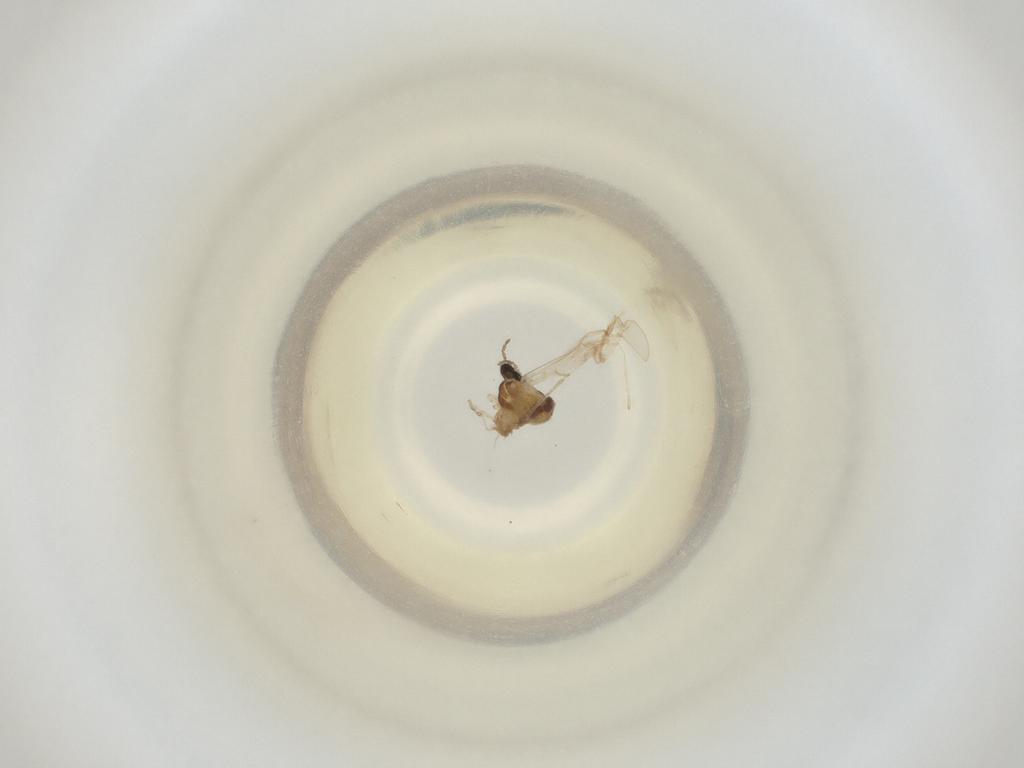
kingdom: Animalia
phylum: Arthropoda
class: Insecta
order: Diptera
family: Cecidomyiidae
